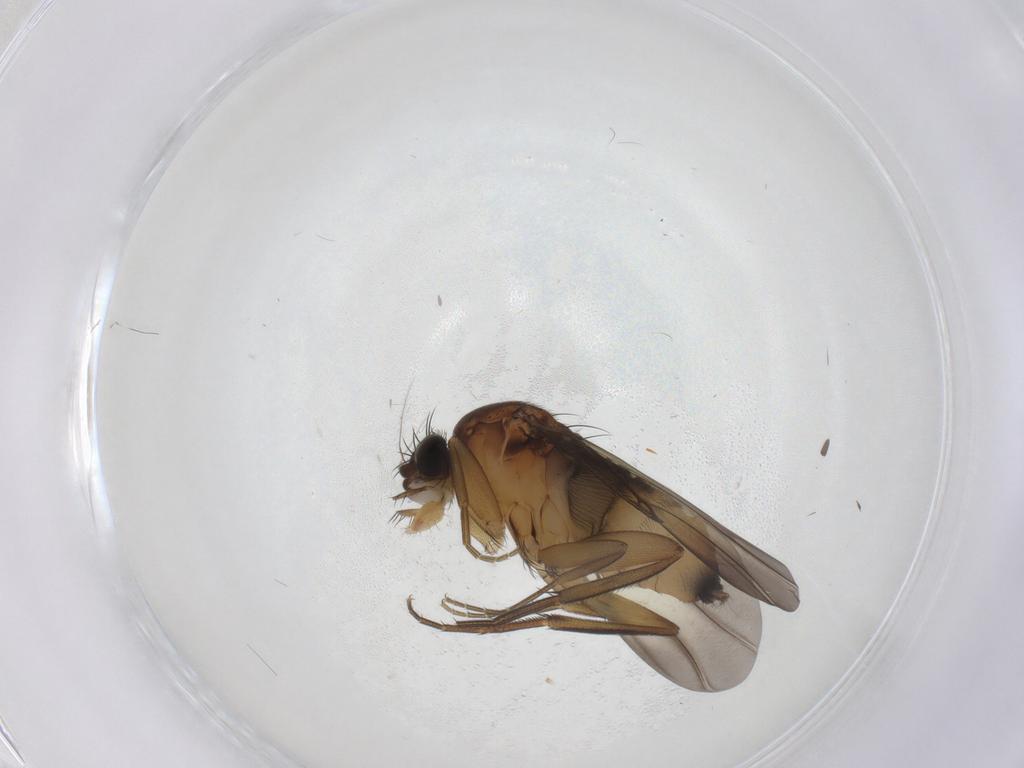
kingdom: Animalia
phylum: Arthropoda
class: Insecta
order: Diptera
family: Phoridae
